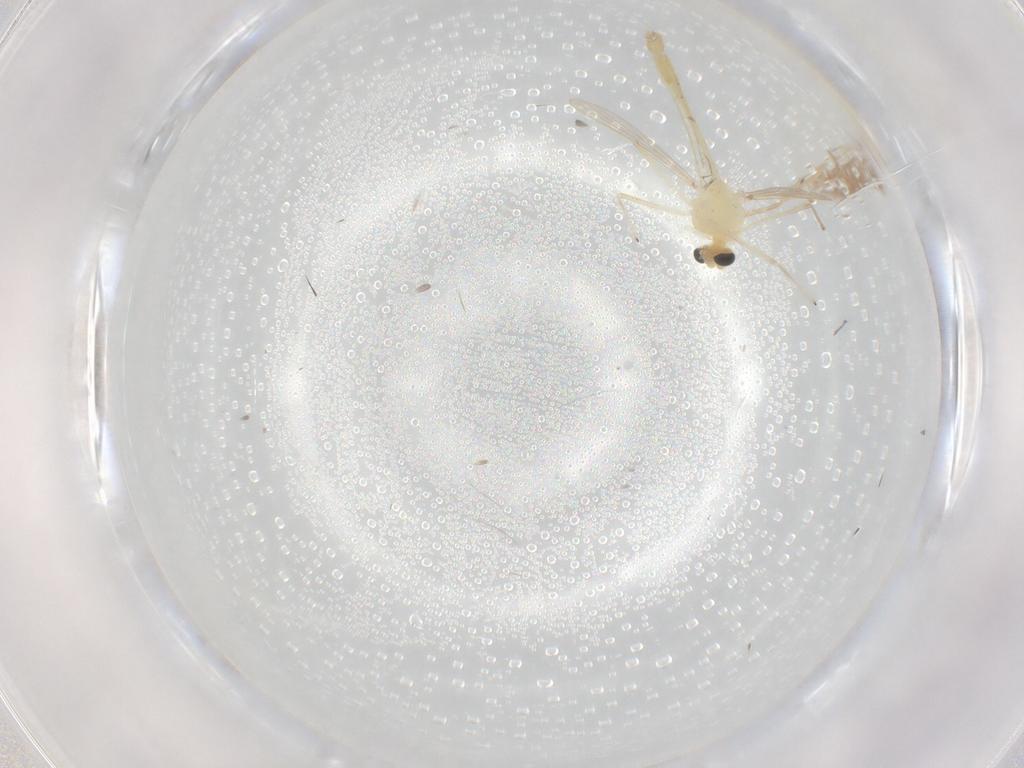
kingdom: Animalia
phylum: Arthropoda
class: Insecta
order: Diptera
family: Chironomidae
